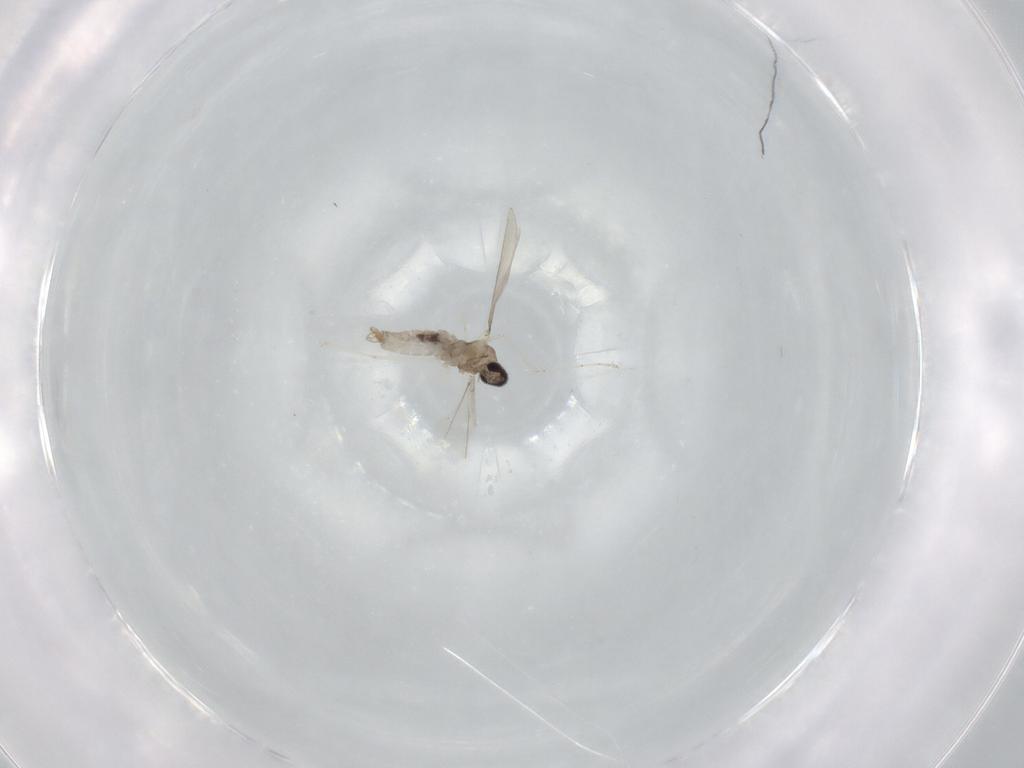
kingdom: Animalia
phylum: Arthropoda
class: Insecta
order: Diptera
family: Cecidomyiidae
